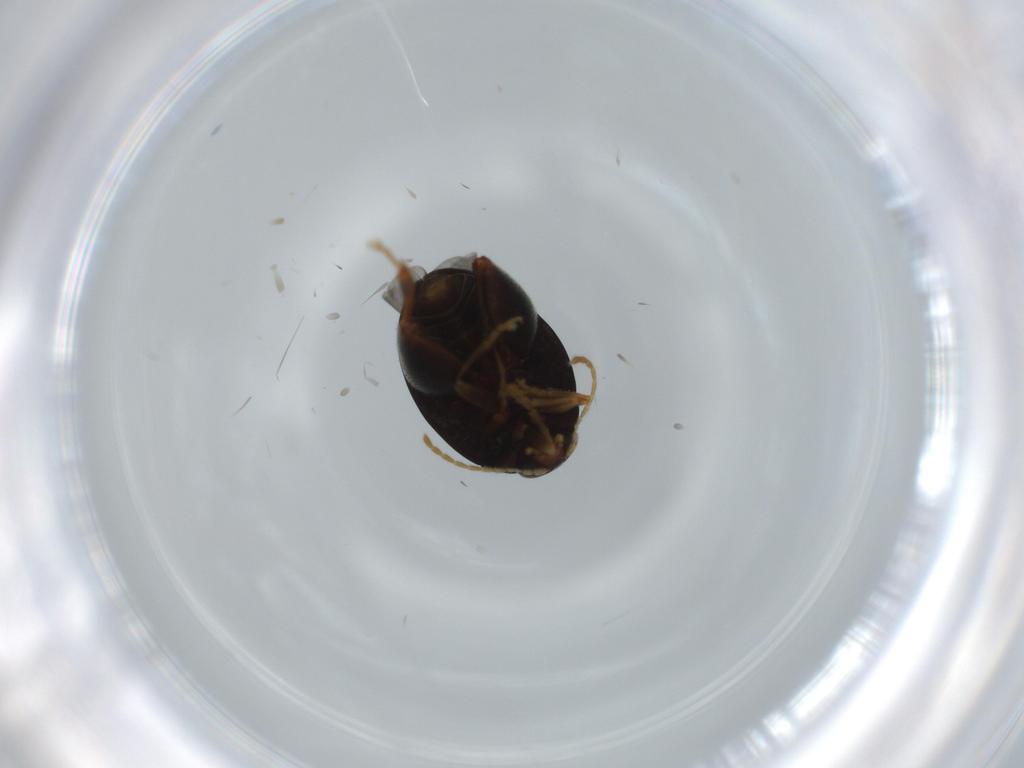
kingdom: Animalia
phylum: Arthropoda
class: Insecta
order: Coleoptera
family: Chrysomelidae
